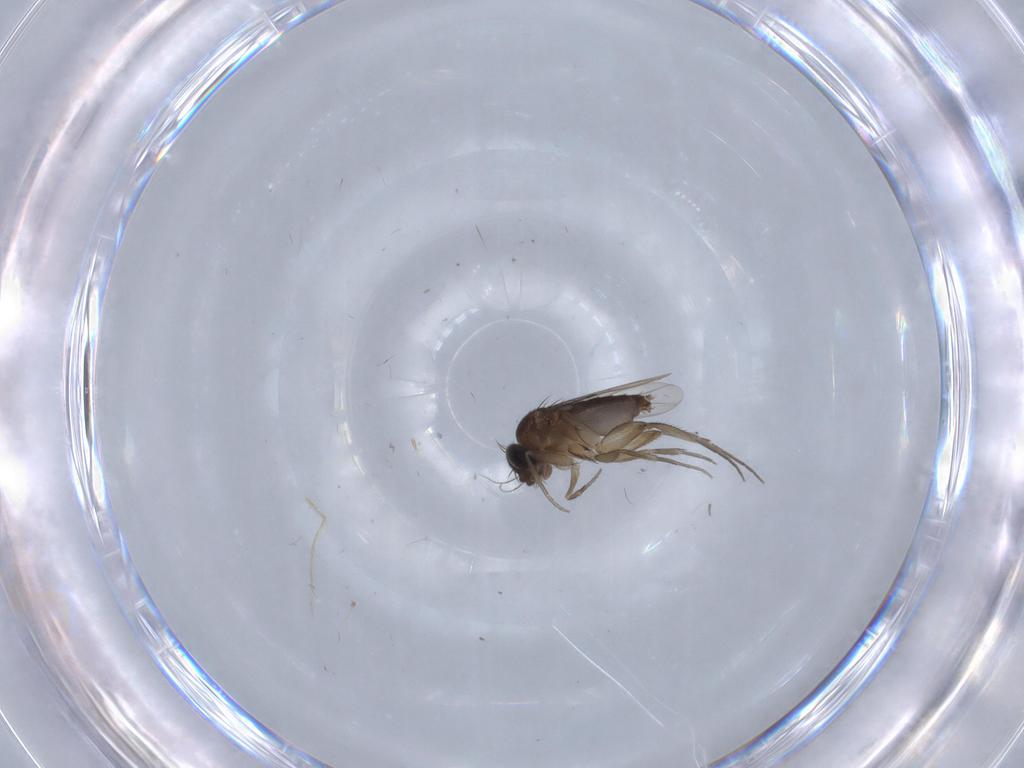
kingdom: Animalia
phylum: Arthropoda
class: Insecta
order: Diptera
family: Phoridae
